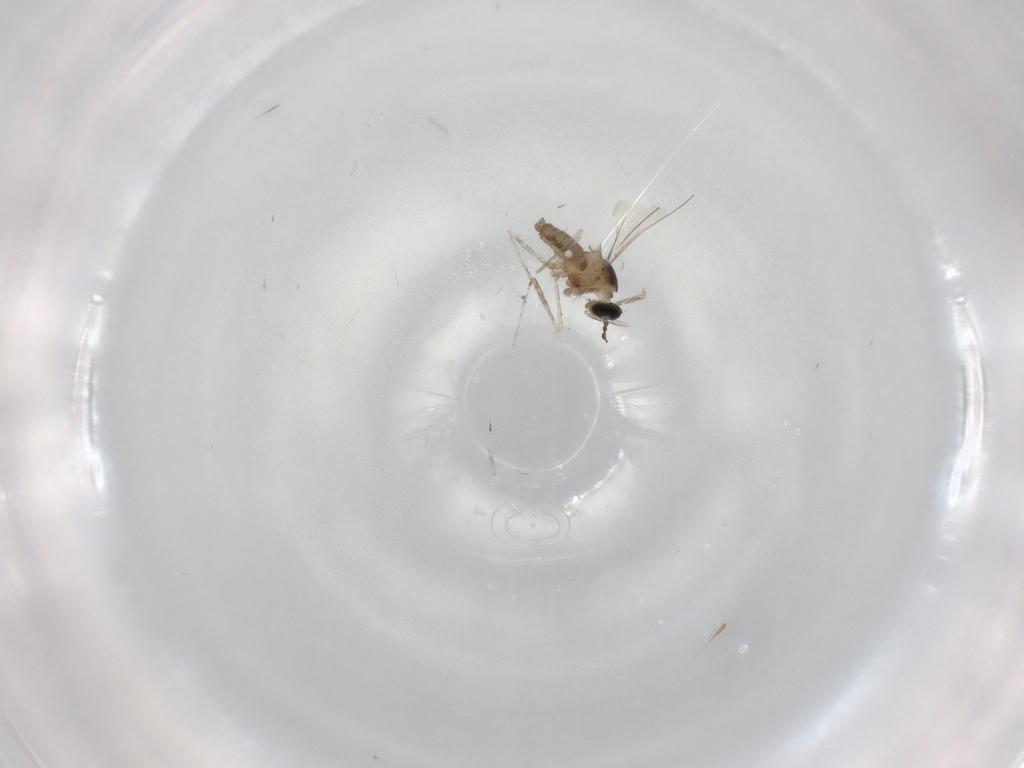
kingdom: Animalia
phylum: Arthropoda
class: Insecta
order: Diptera
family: Cecidomyiidae
